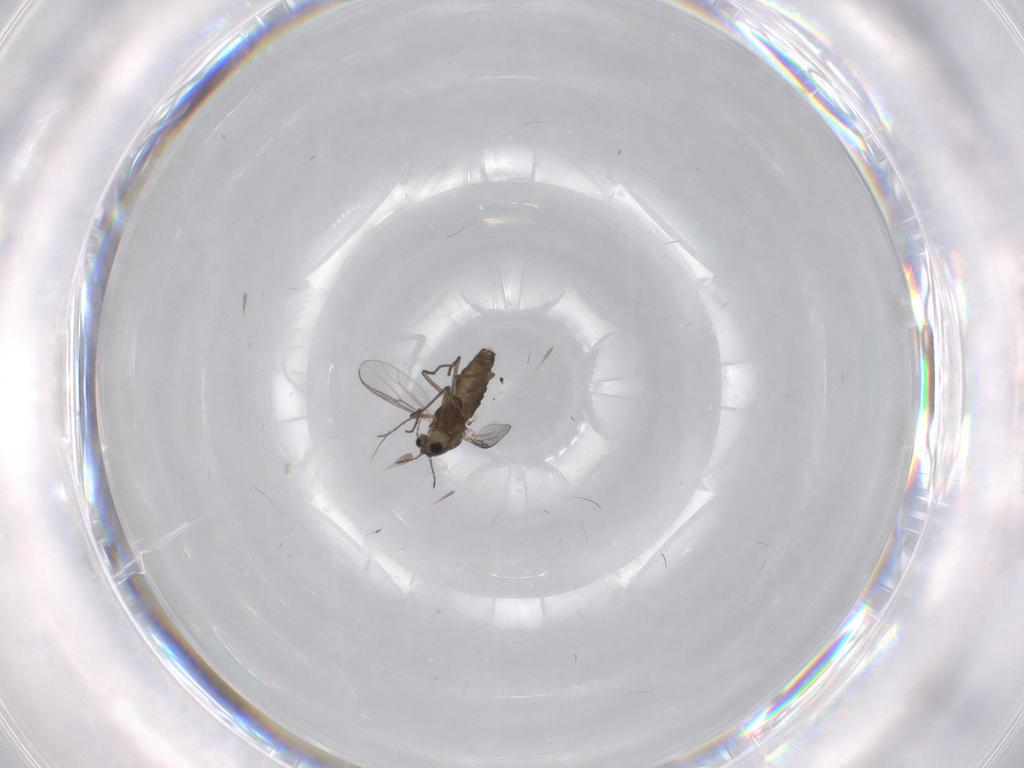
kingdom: Animalia
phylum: Arthropoda
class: Insecta
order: Diptera
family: Chironomidae
